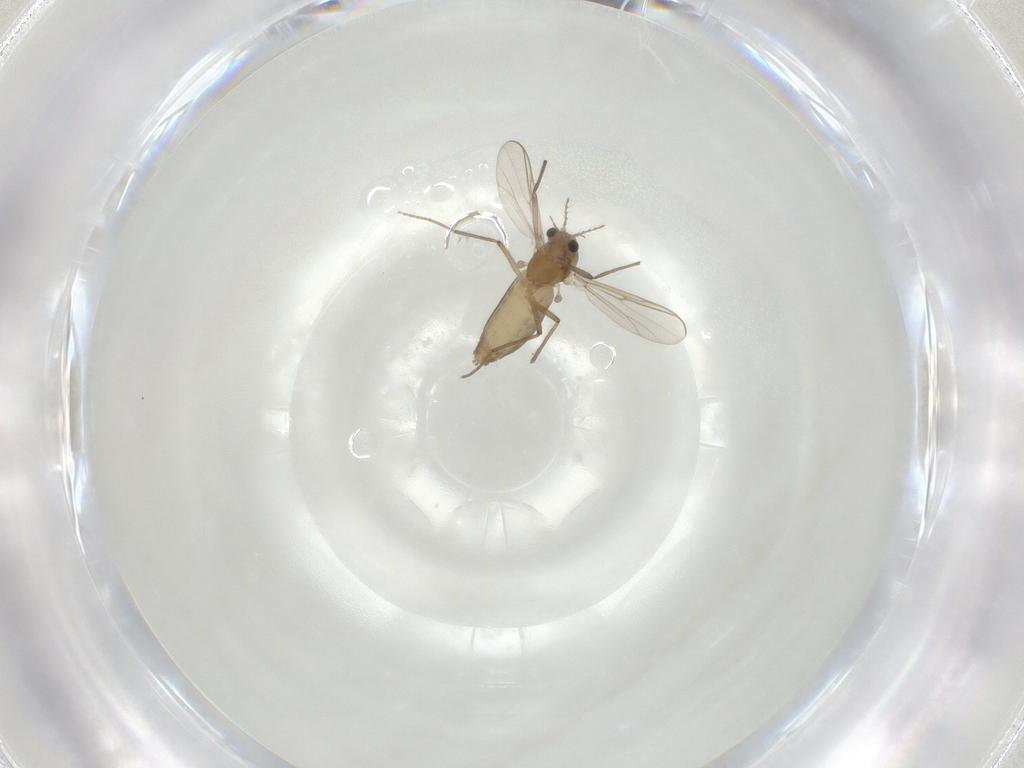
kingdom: Animalia
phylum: Arthropoda
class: Insecta
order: Diptera
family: Chironomidae
